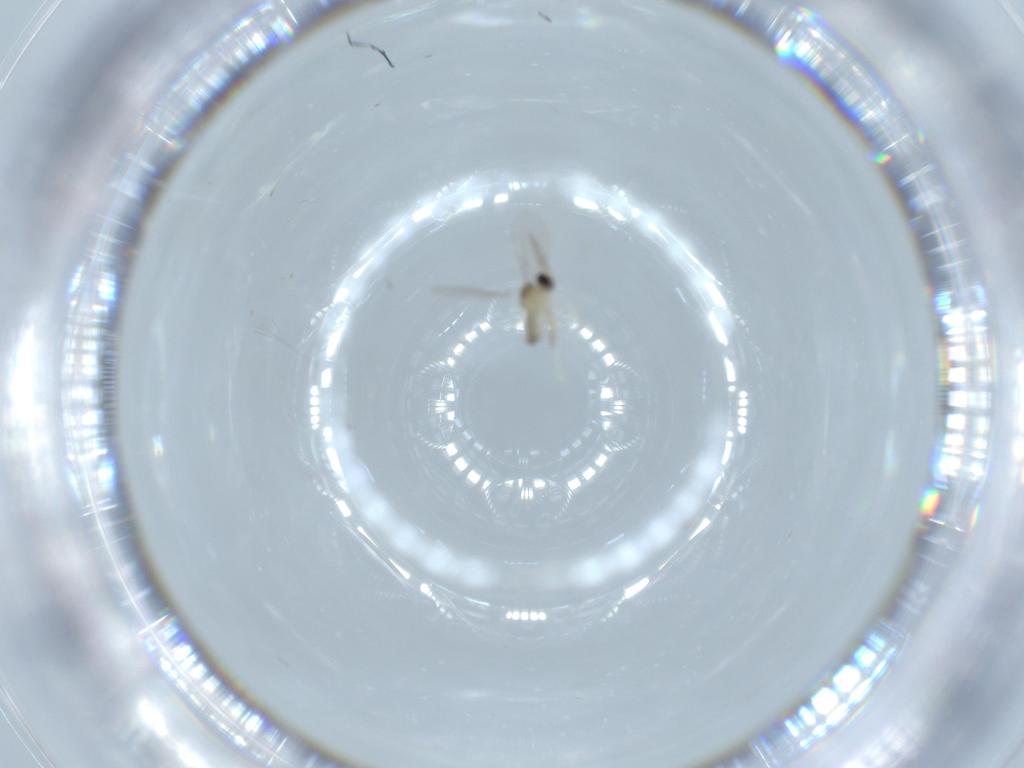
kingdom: Animalia
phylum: Arthropoda
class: Insecta
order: Diptera
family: Cecidomyiidae
